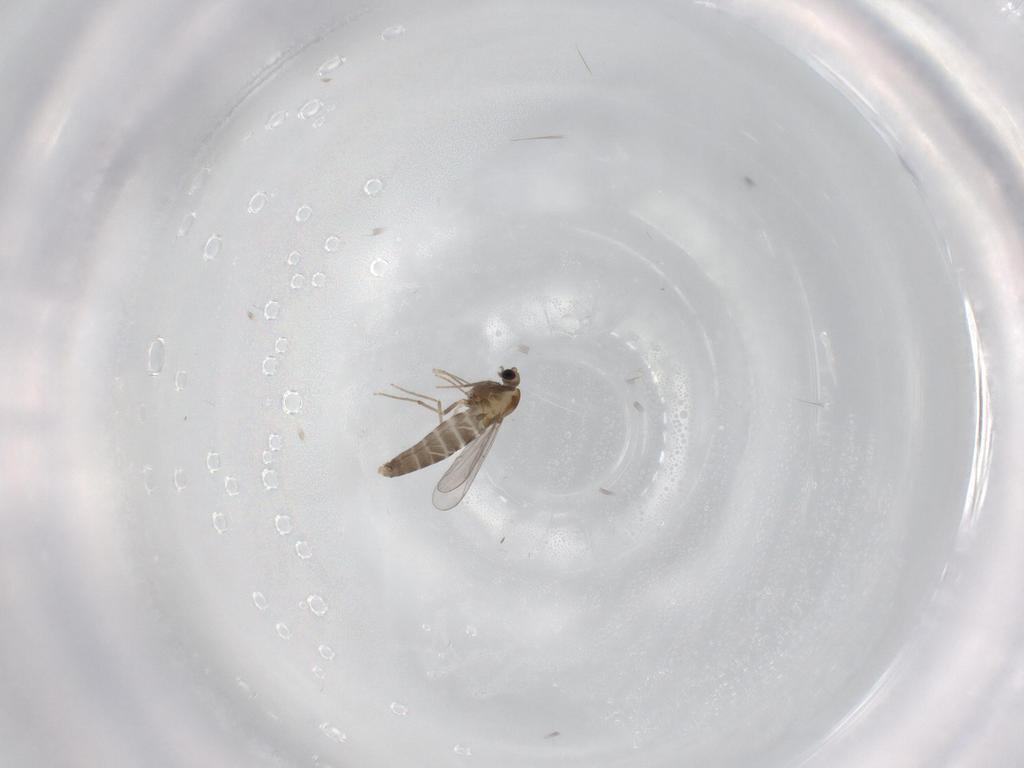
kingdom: Animalia
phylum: Arthropoda
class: Insecta
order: Diptera
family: Chironomidae
